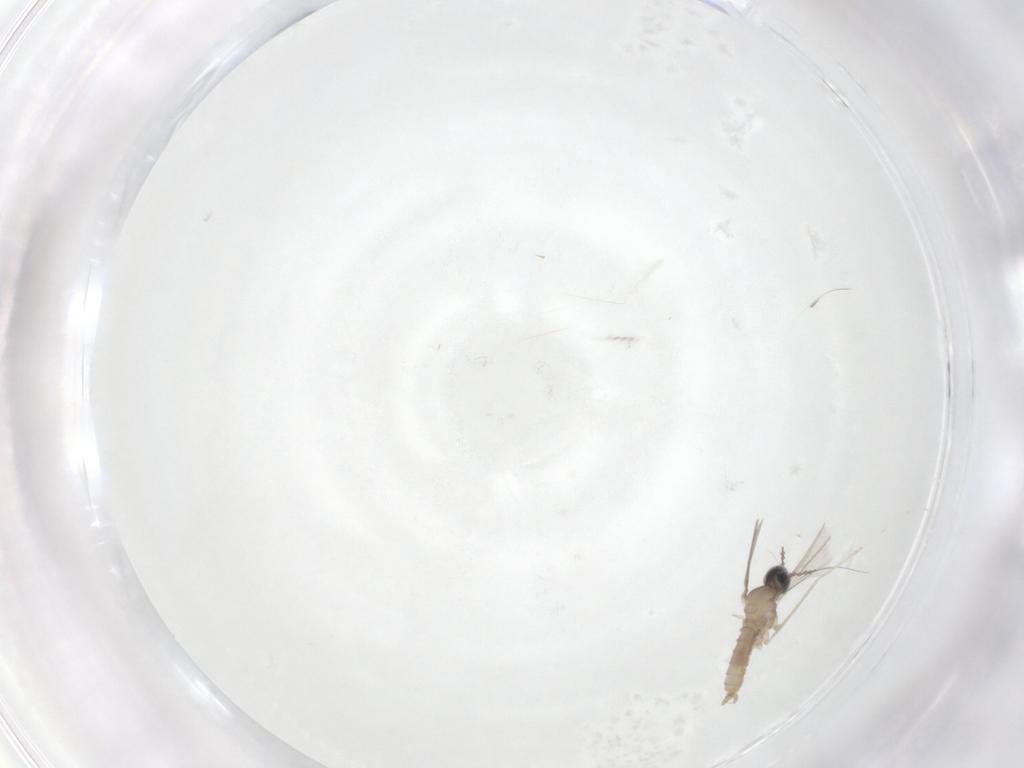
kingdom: Animalia
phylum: Arthropoda
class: Insecta
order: Diptera
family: Cecidomyiidae
